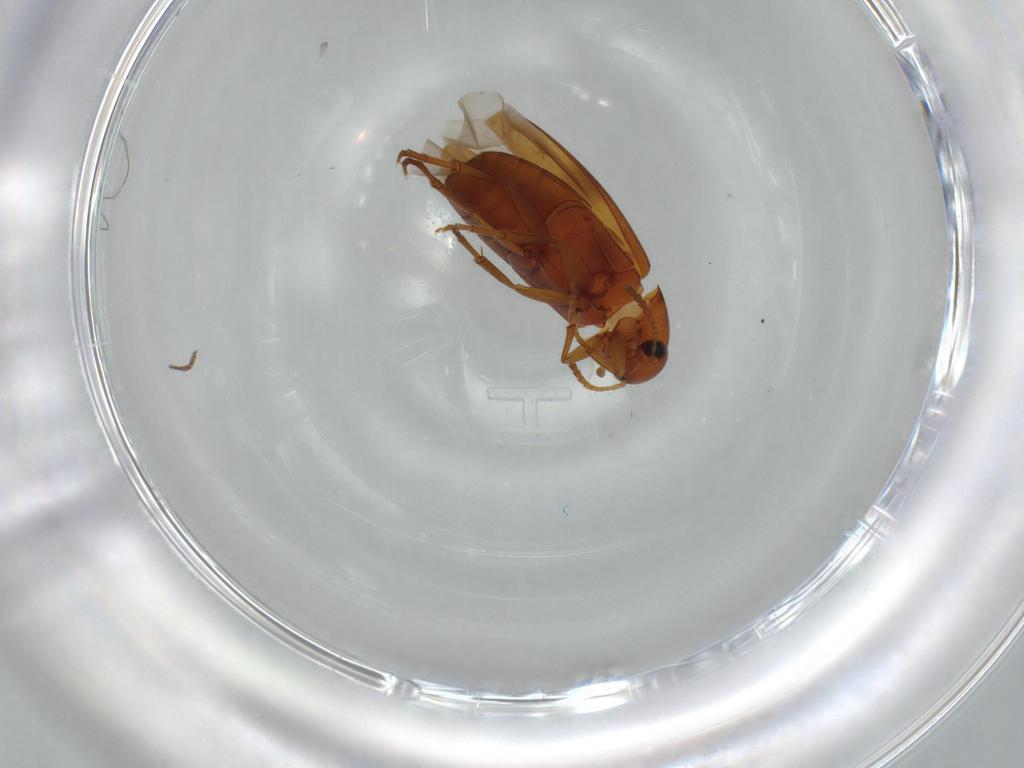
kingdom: Animalia
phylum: Arthropoda
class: Insecta
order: Coleoptera
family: Scraptiidae
